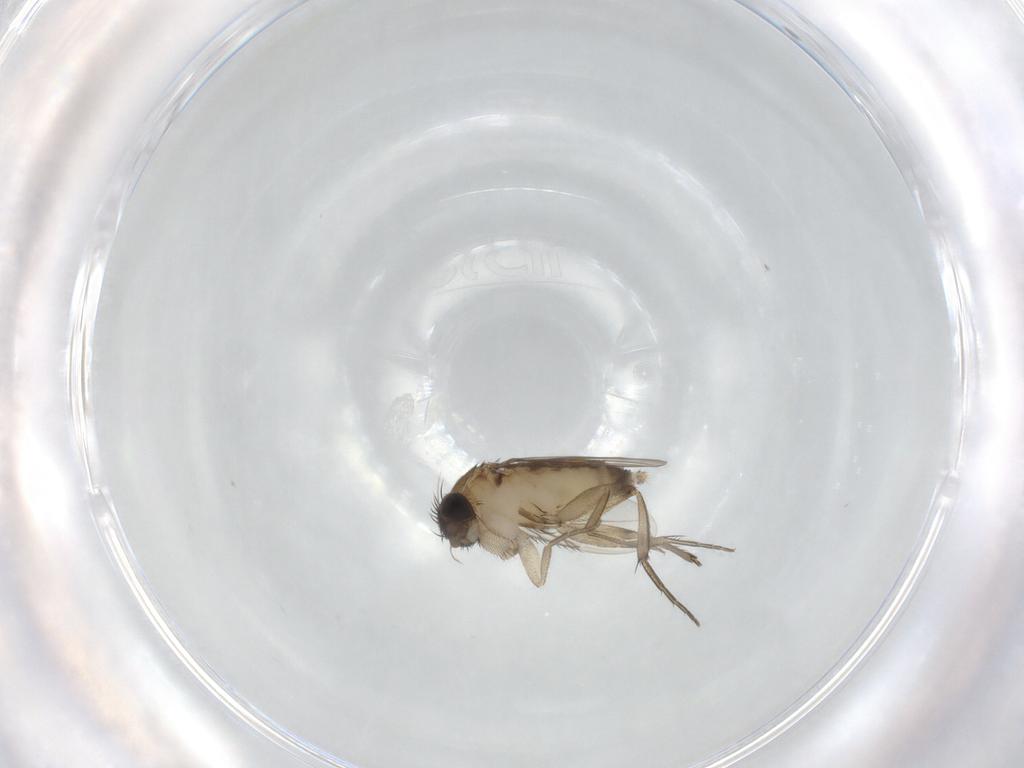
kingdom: Animalia
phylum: Arthropoda
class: Insecta
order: Diptera
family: Phoridae
